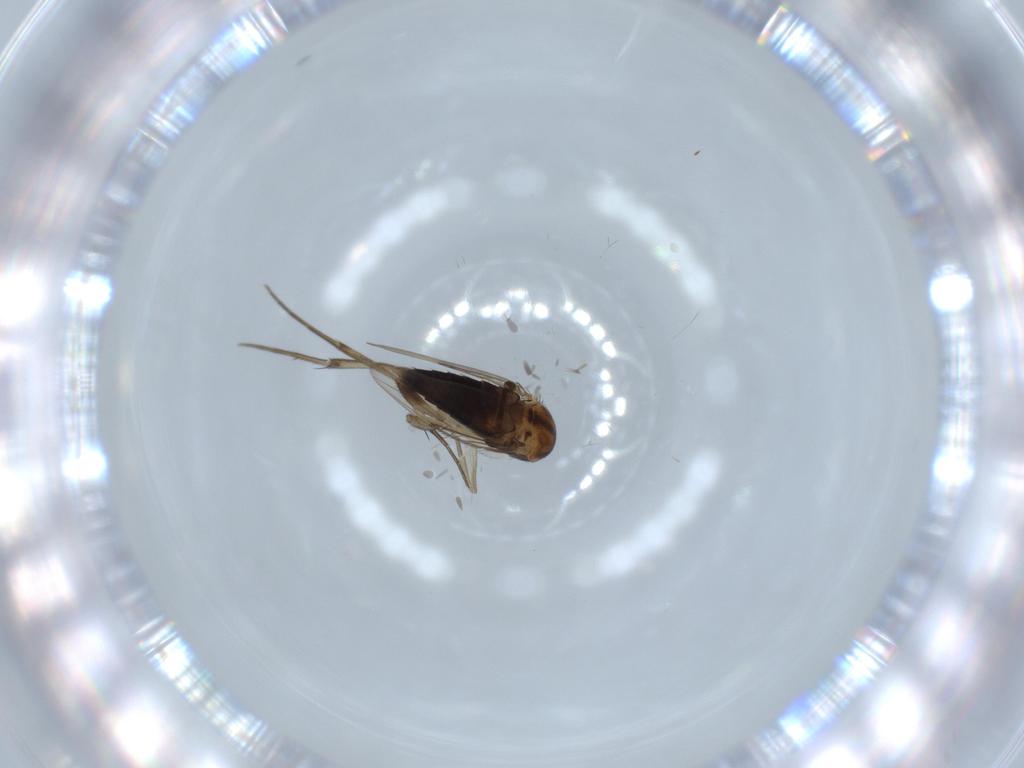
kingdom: Animalia
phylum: Arthropoda
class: Insecta
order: Diptera
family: Phoridae
